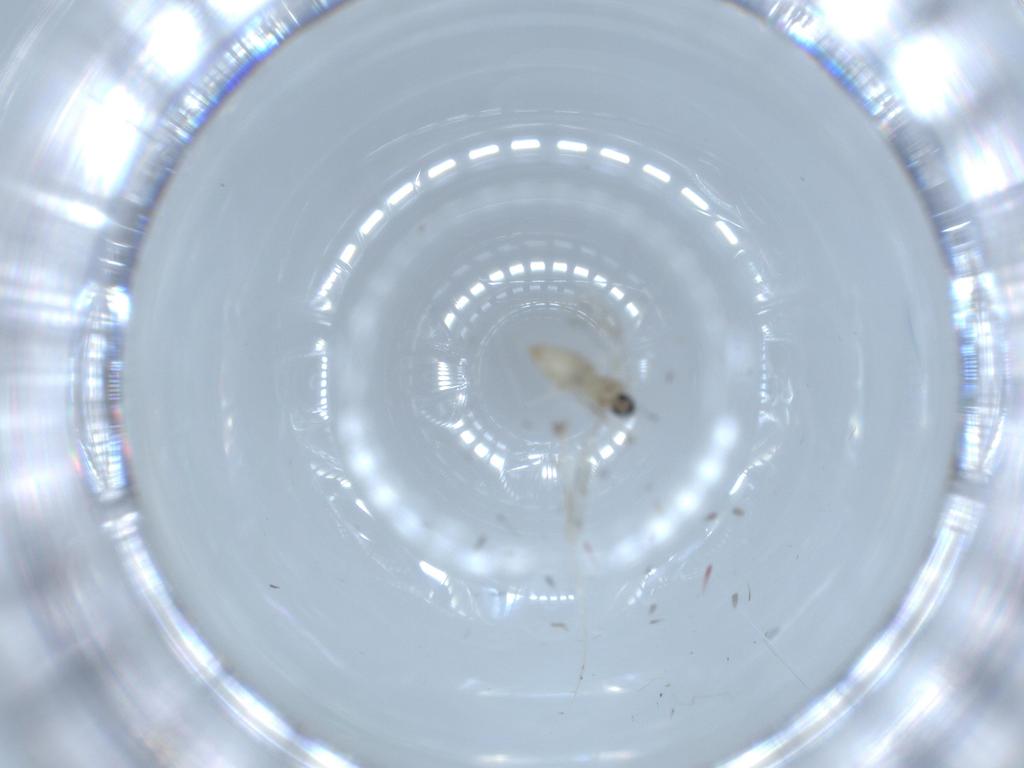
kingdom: Animalia
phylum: Arthropoda
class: Insecta
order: Diptera
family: Cecidomyiidae
